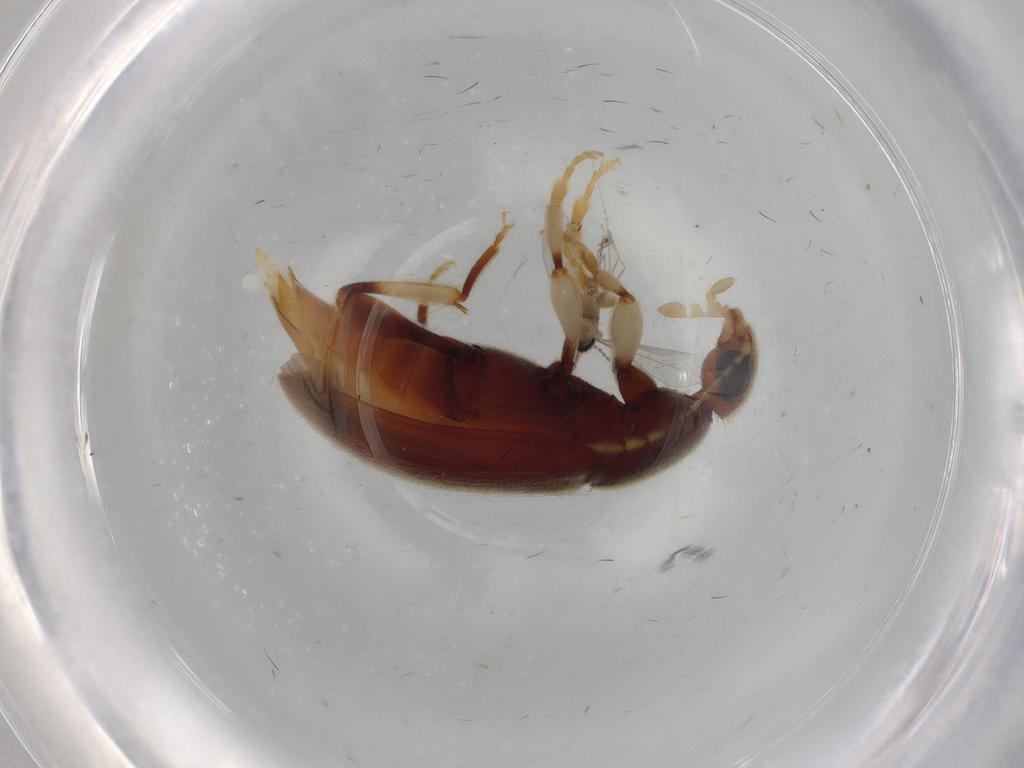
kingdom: Animalia
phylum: Arthropoda
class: Insecta
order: Coleoptera
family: Anthicidae
